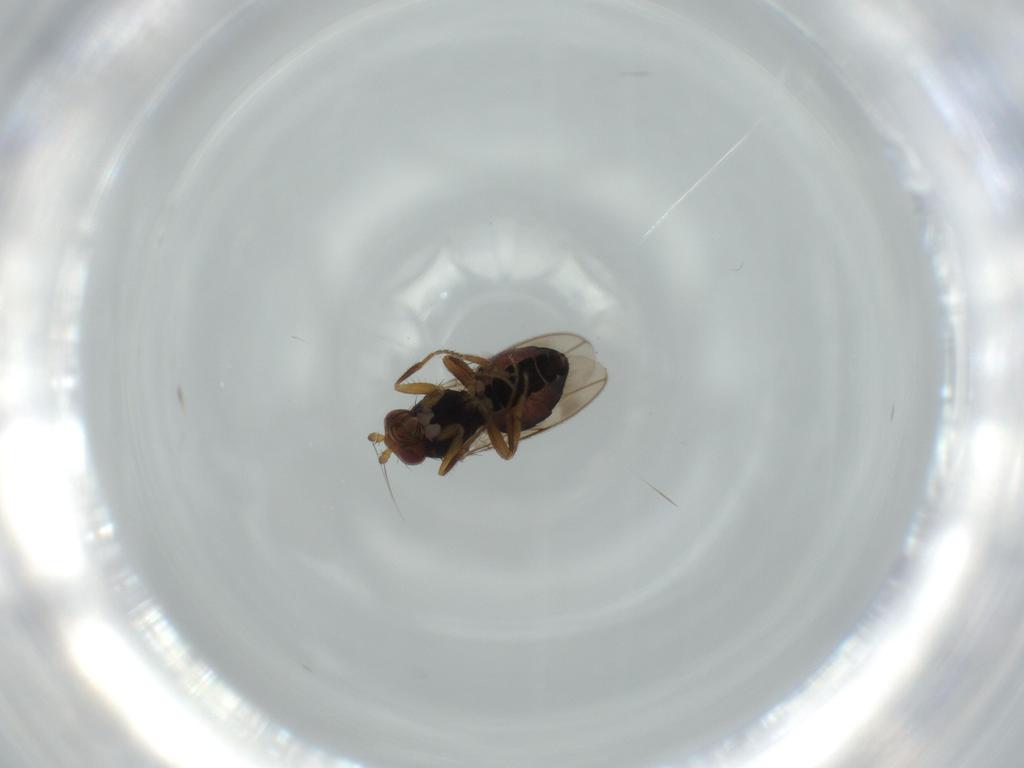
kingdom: Animalia
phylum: Arthropoda
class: Insecta
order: Diptera
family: Sphaeroceridae
